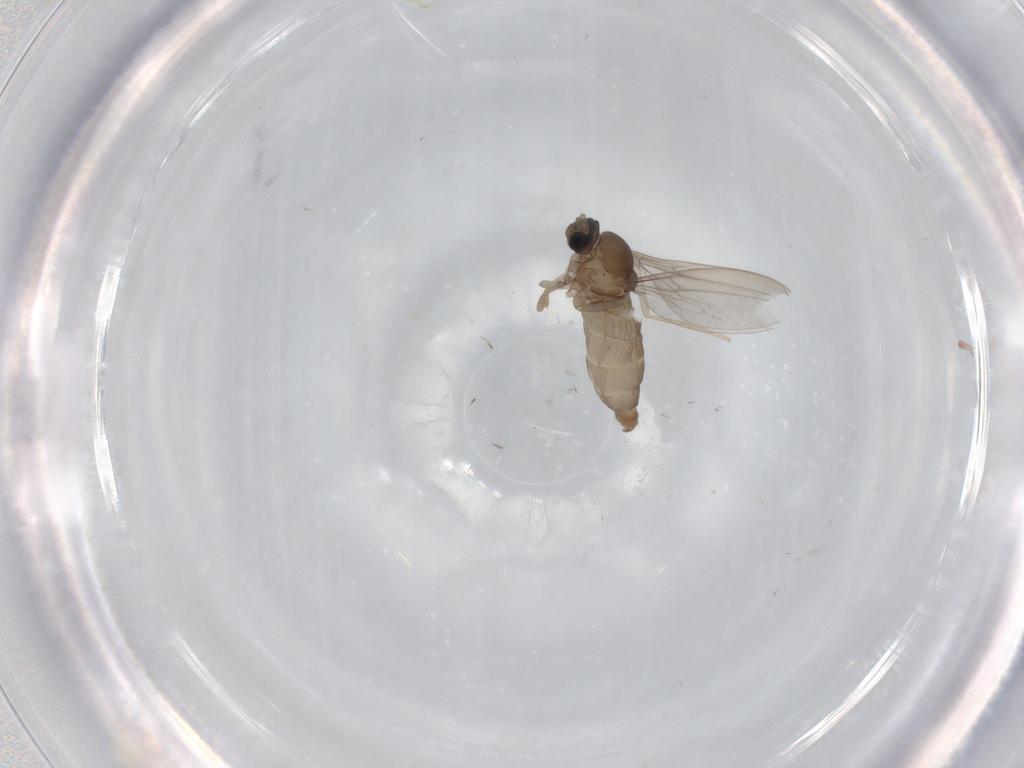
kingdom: Animalia
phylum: Arthropoda
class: Insecta
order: Diptera
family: Cecidomyiidae
